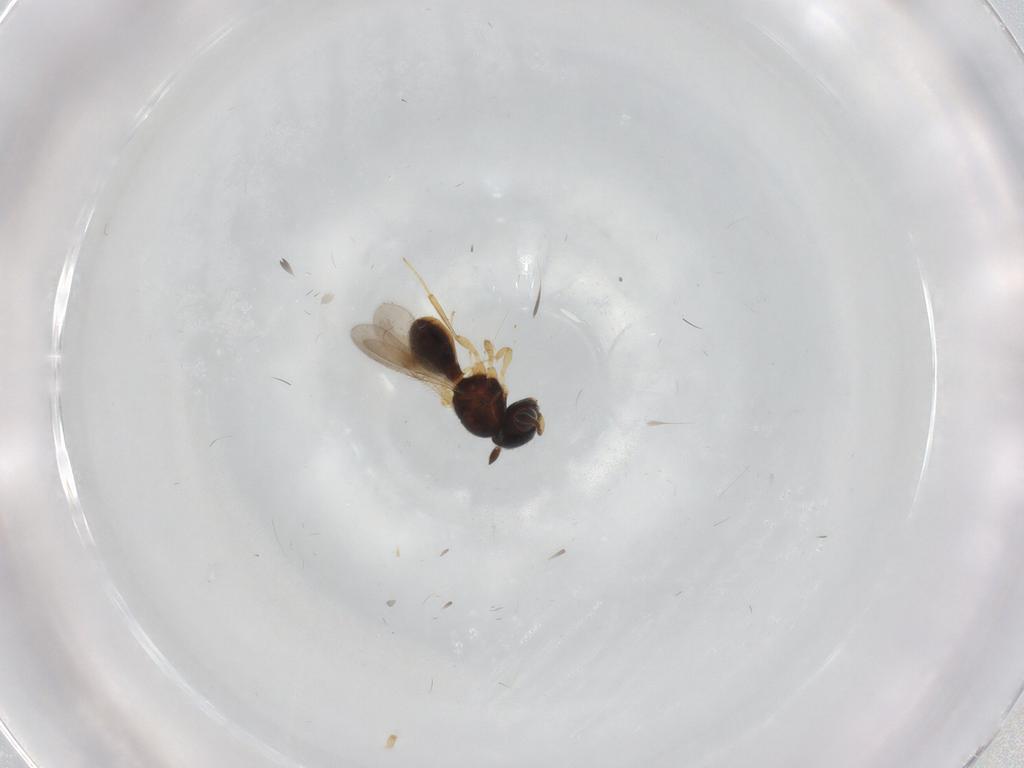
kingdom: Animalia
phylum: Arthropoda
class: Insecta
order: Hymenoptera
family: Scelionidae
